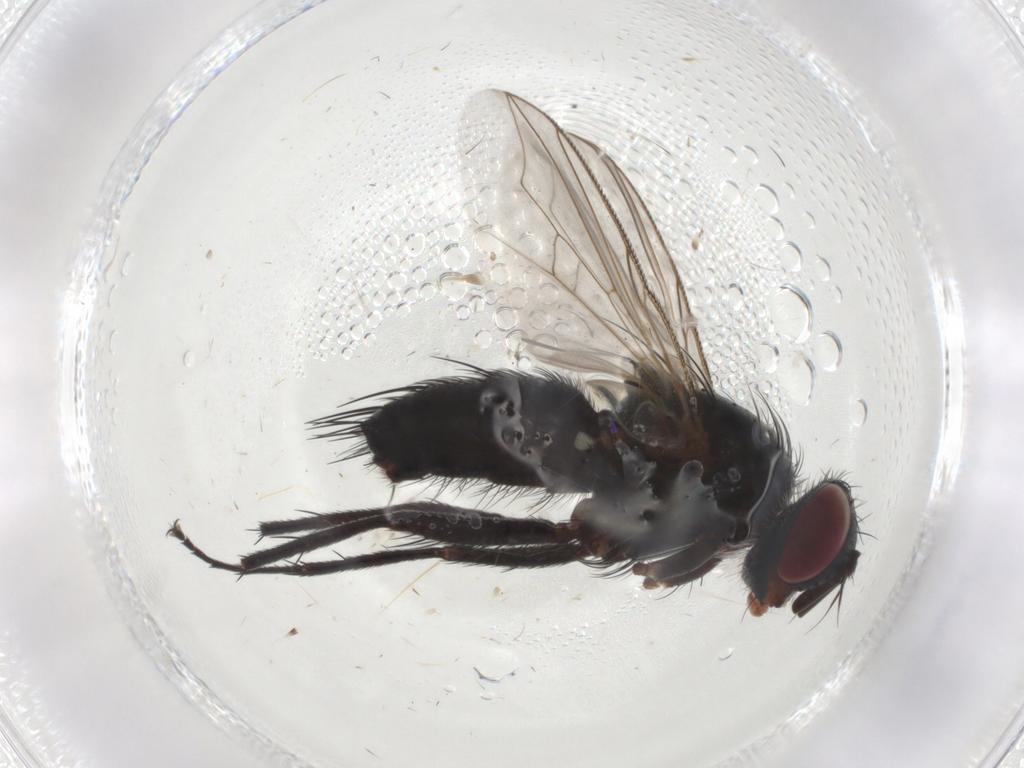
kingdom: Animalia
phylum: Arthropoda
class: Insecta
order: Diptera
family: Tachinidae
